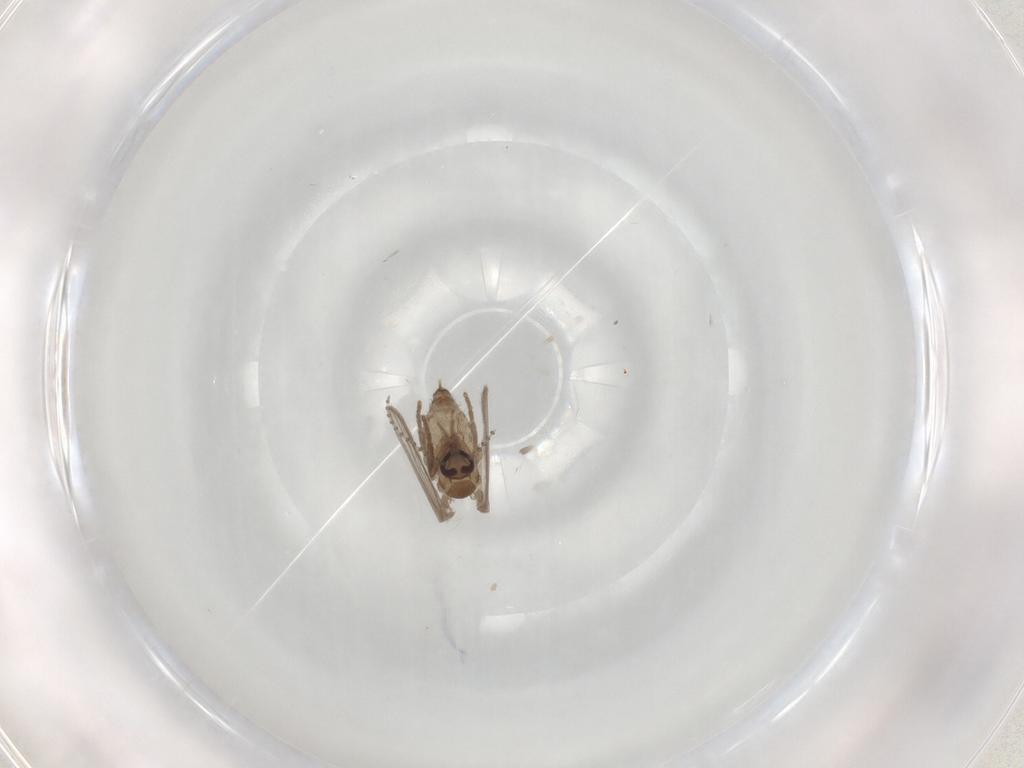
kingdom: Animalia
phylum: Arthropoda
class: Insecta
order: Diptera
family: Psychodidae
